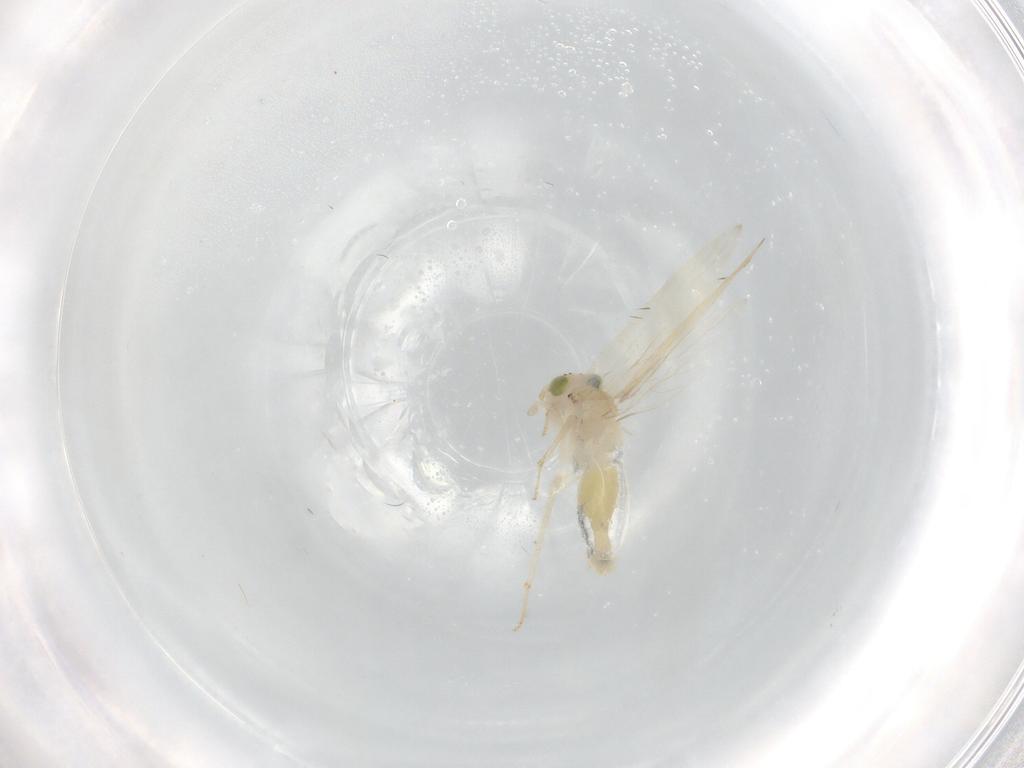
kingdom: Animalia
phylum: Arthropoda
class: Insecta
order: Psocodea
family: Lepidopsocidae
